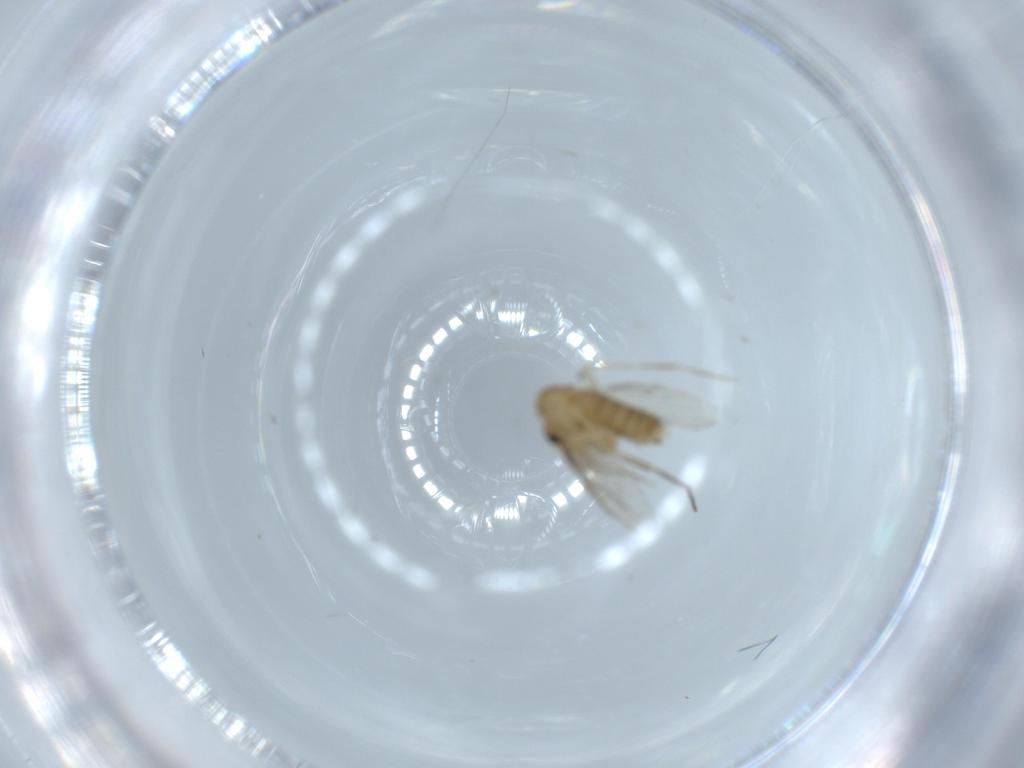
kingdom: Animalia
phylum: Arthropoda
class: Insecta
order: Diptera
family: Psychodidae
